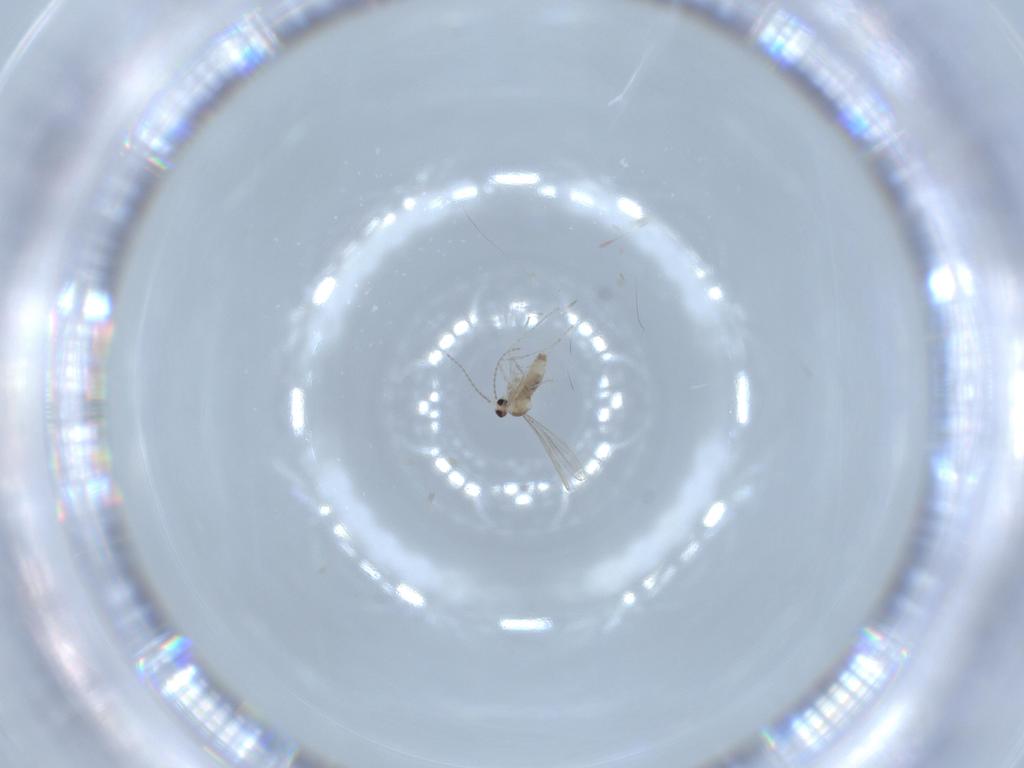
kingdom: Animalia
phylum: Arthropoda
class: Insecta
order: Diptera
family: Cecidomyiidae
